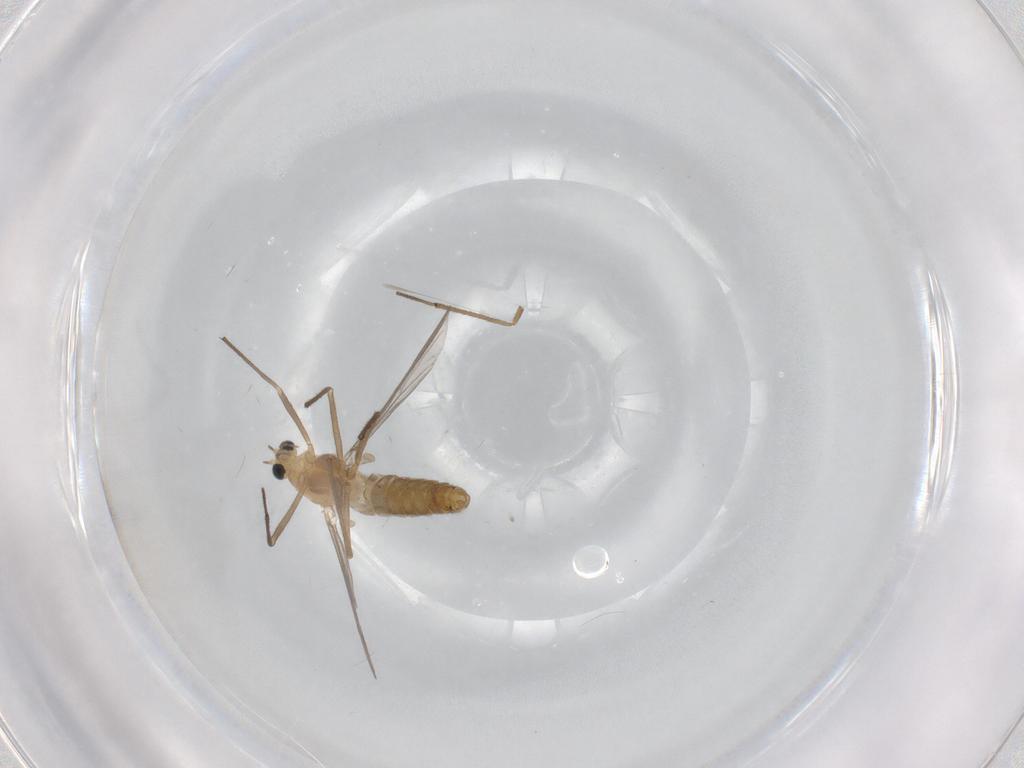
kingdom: Animalia
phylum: Arthropoda
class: Insecta
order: Diptera
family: Chironomidae
